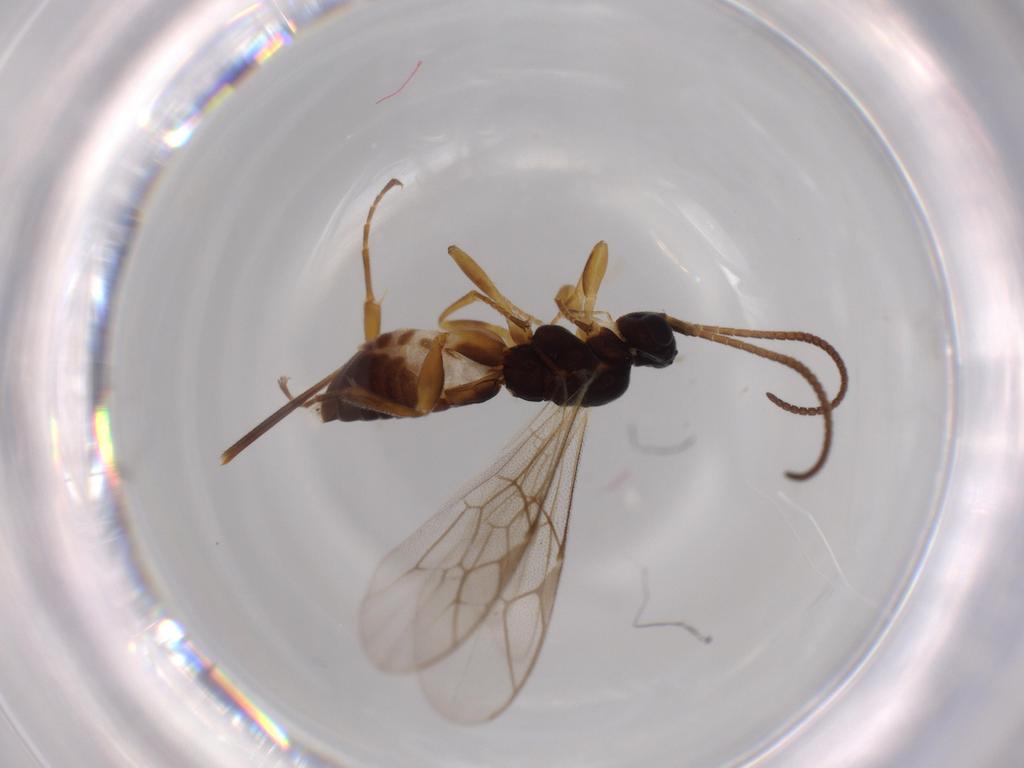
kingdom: Animalia
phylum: Arthropoda
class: Insecta
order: Hymenoptera
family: Ichneumonidae
